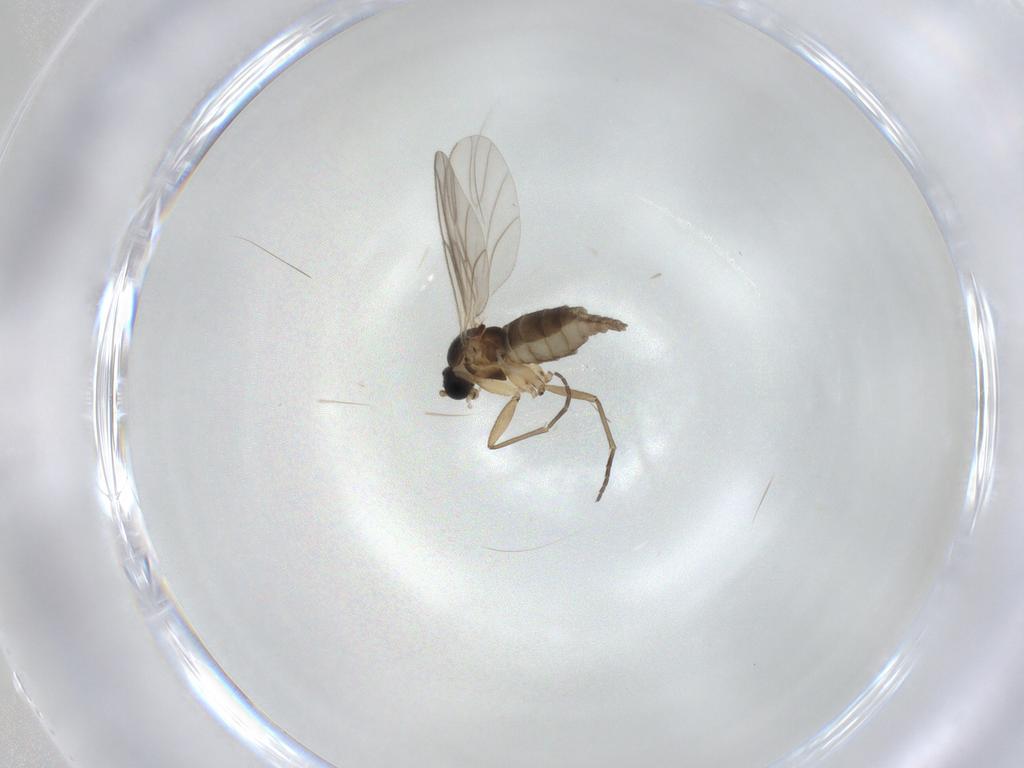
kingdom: Animalia
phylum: Arthropoda
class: Insecta
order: Diptera
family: Sciaridae
